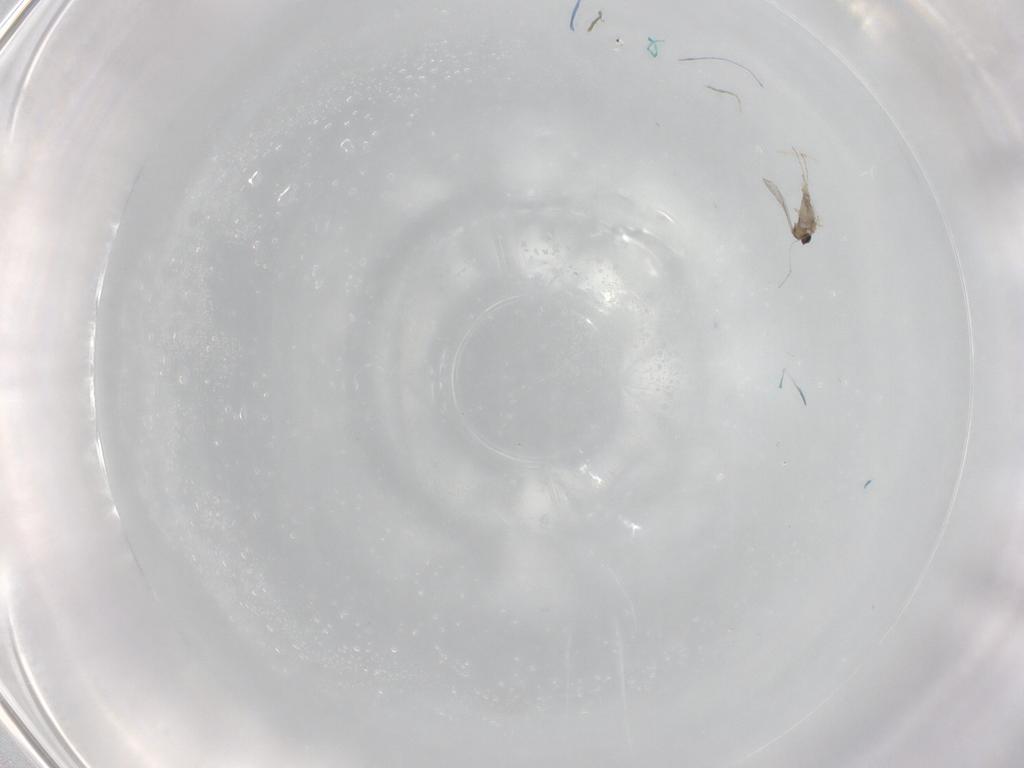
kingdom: Animalia
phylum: Arthropoda
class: Insecta
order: Diptera
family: Cecidomyiidae
